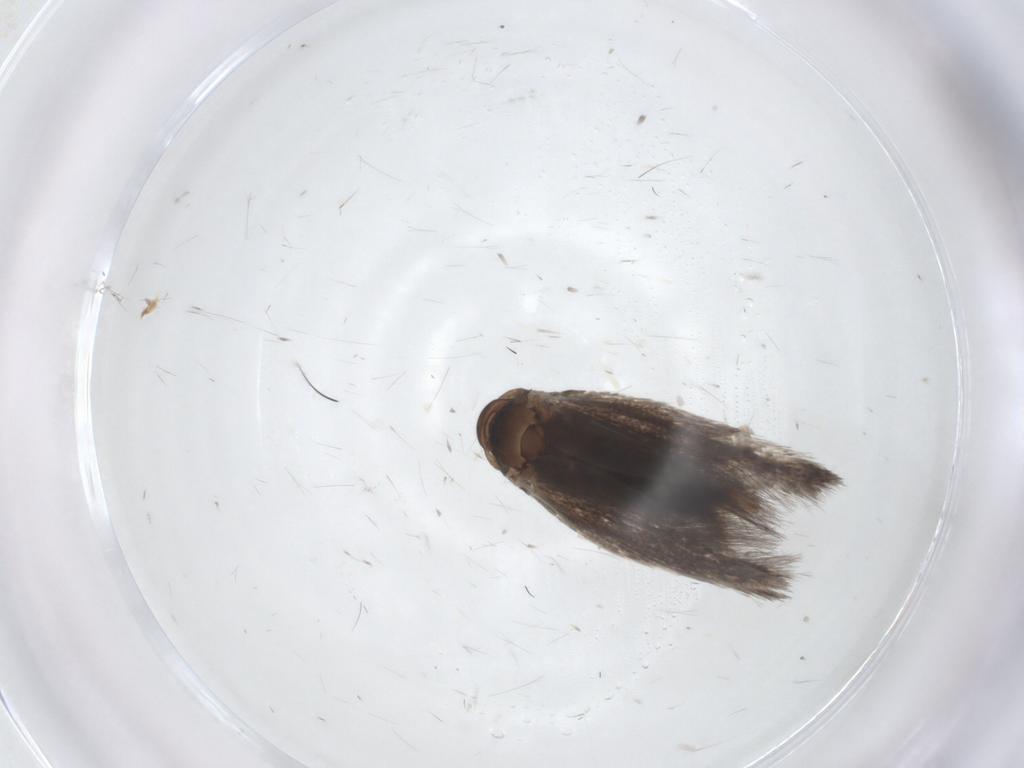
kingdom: Animalia
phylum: Arthropoda
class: Insecta
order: Lepidoptera
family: Elachistidae
